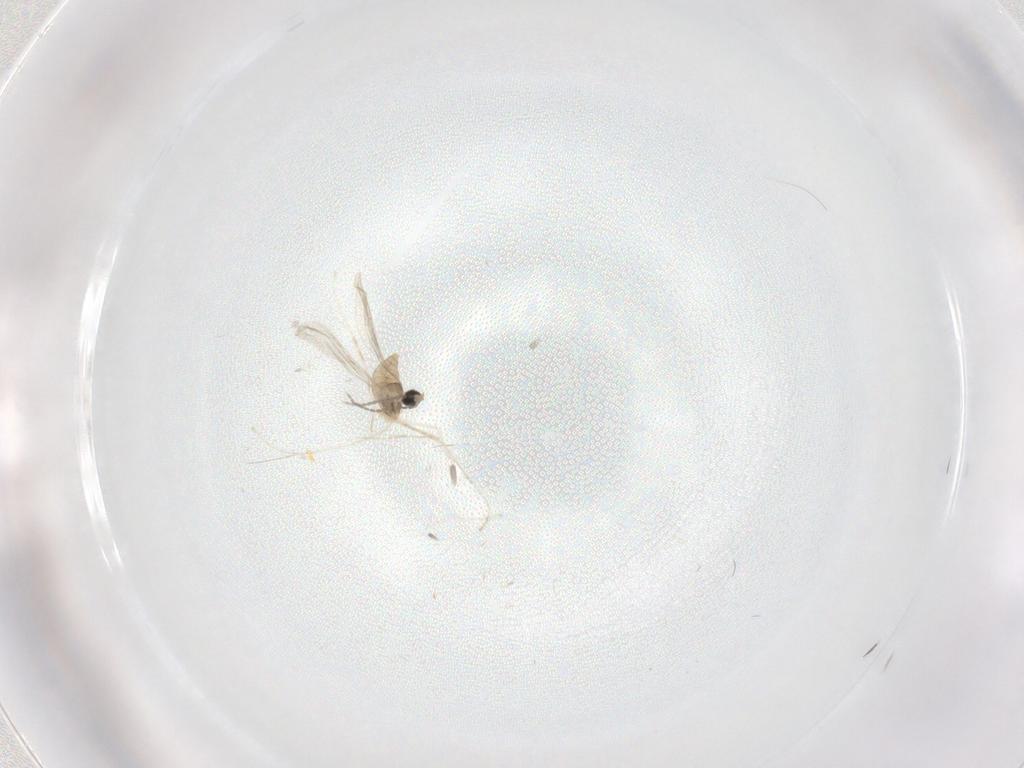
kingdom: Animalia
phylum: Arthropoda
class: Insecta
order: Diptera
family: Cecidomyiidae
